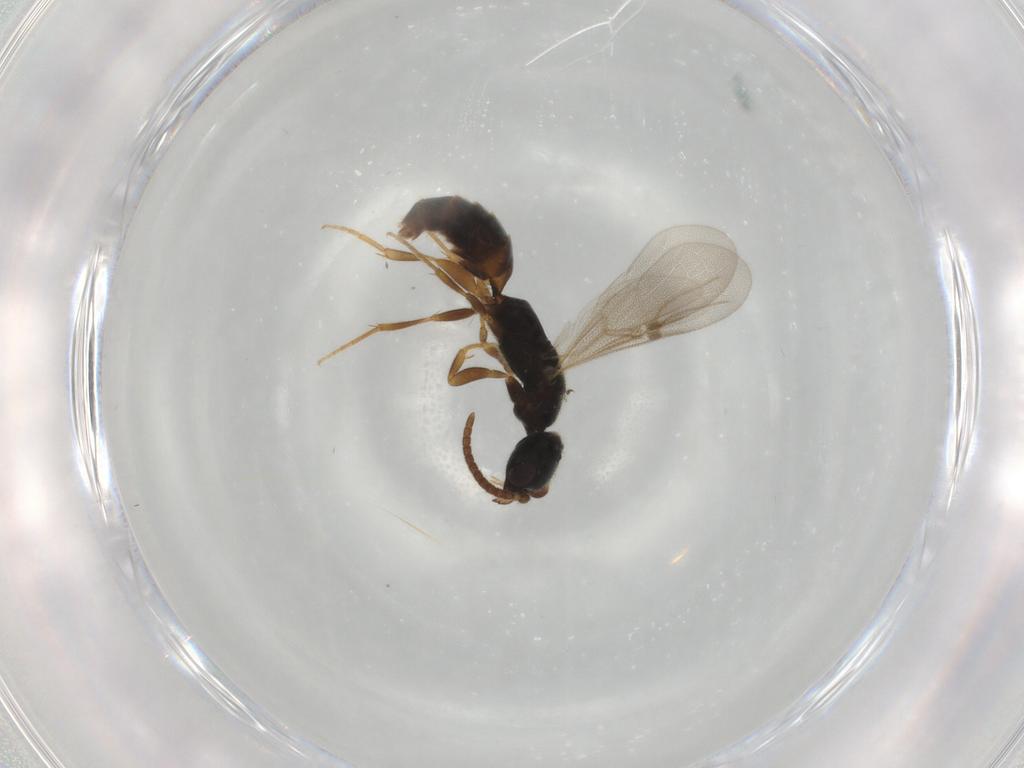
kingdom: Animalia
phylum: Arthropoda
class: Insecta
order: Hymenoptera
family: Bethylidae
